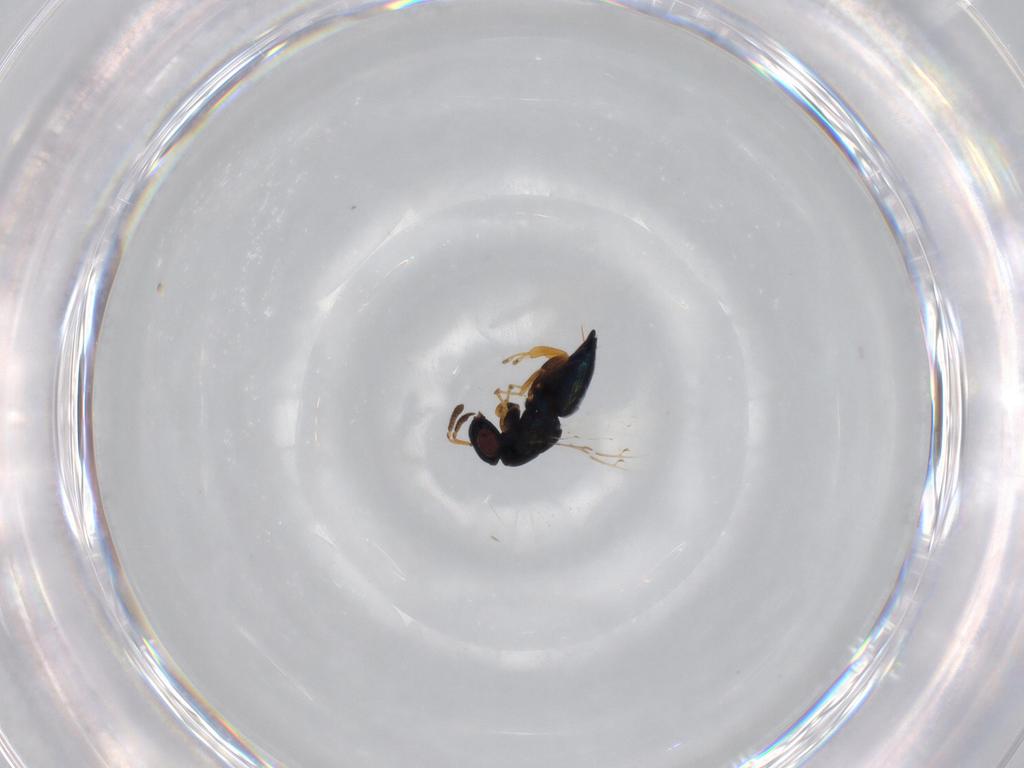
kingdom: Animalia
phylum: Arthropoda
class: Insecta
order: Hymenoptera
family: Agaonidae
